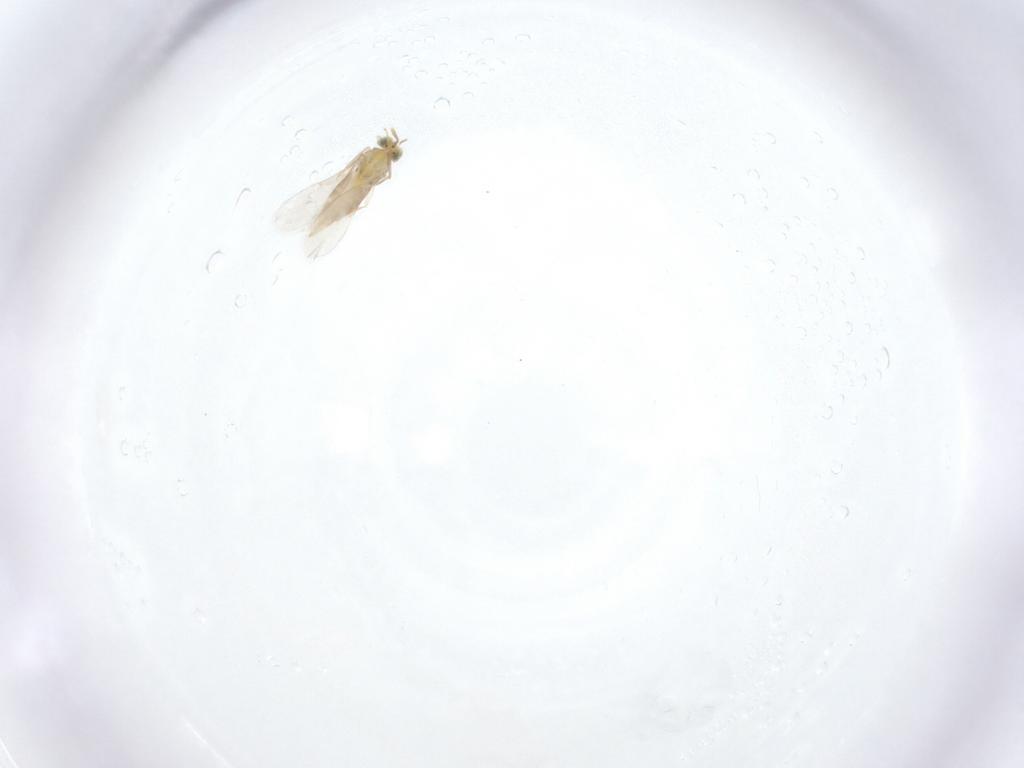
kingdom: Animalia
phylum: Arthropoda
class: Insecta
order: Hymenoptera
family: Aphelinidae
